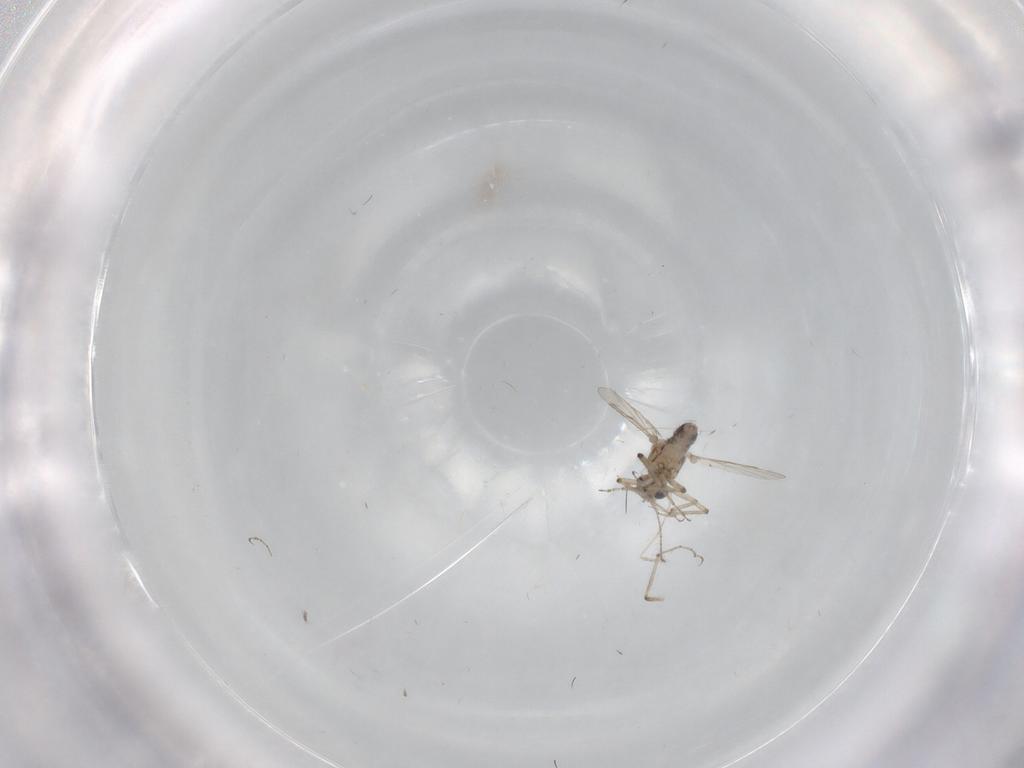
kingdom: Animalia
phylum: Arthropoda
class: Insecta
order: Diptera
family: Ceratopogonidae
